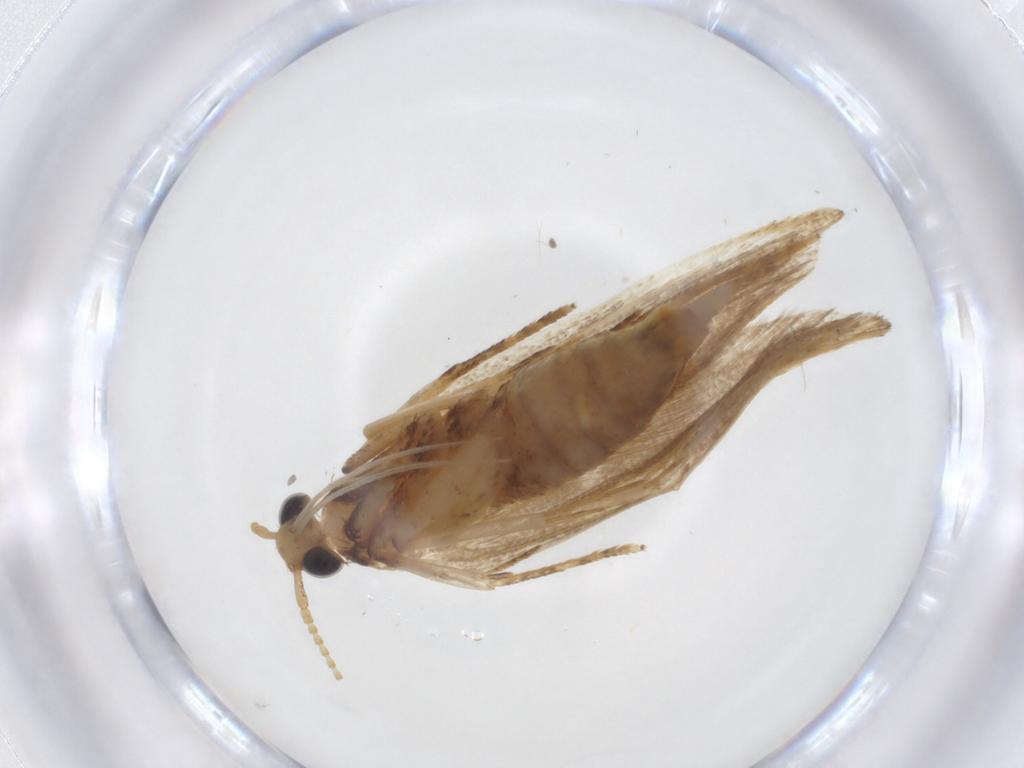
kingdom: Animalia
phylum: Arthropoda
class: Insecta
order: Lepidoptera
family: Lecithoceridae
